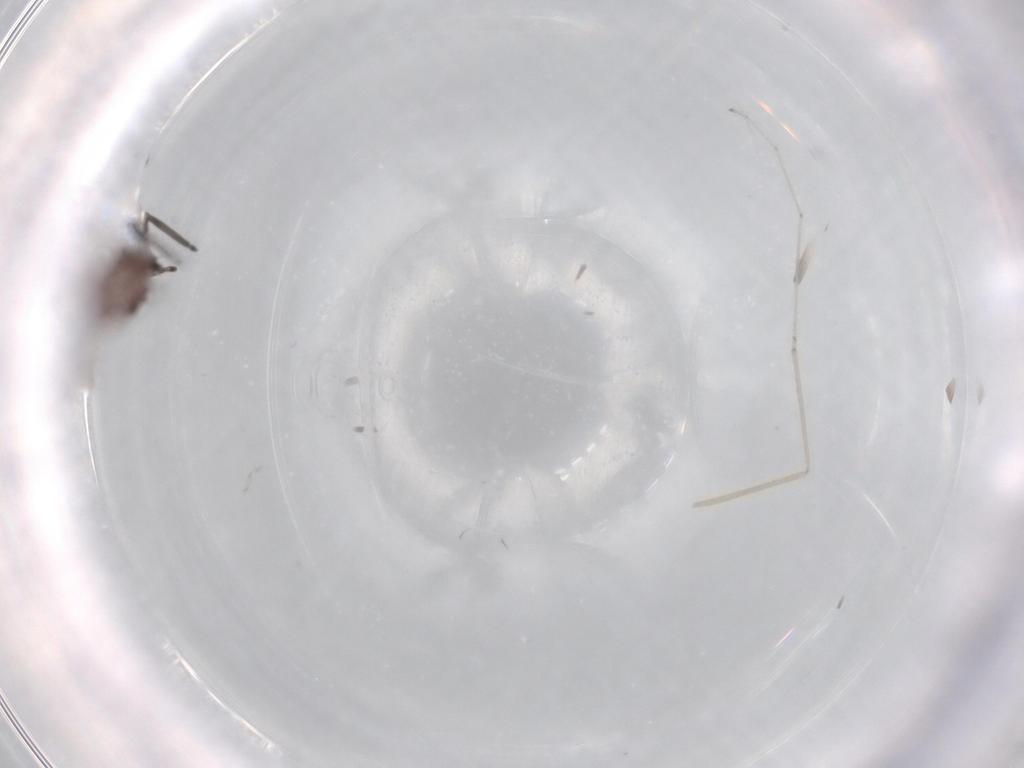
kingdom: Animalia
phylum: Arthropoda
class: Insecta
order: Thysanoptera
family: Phlaeothripidae
